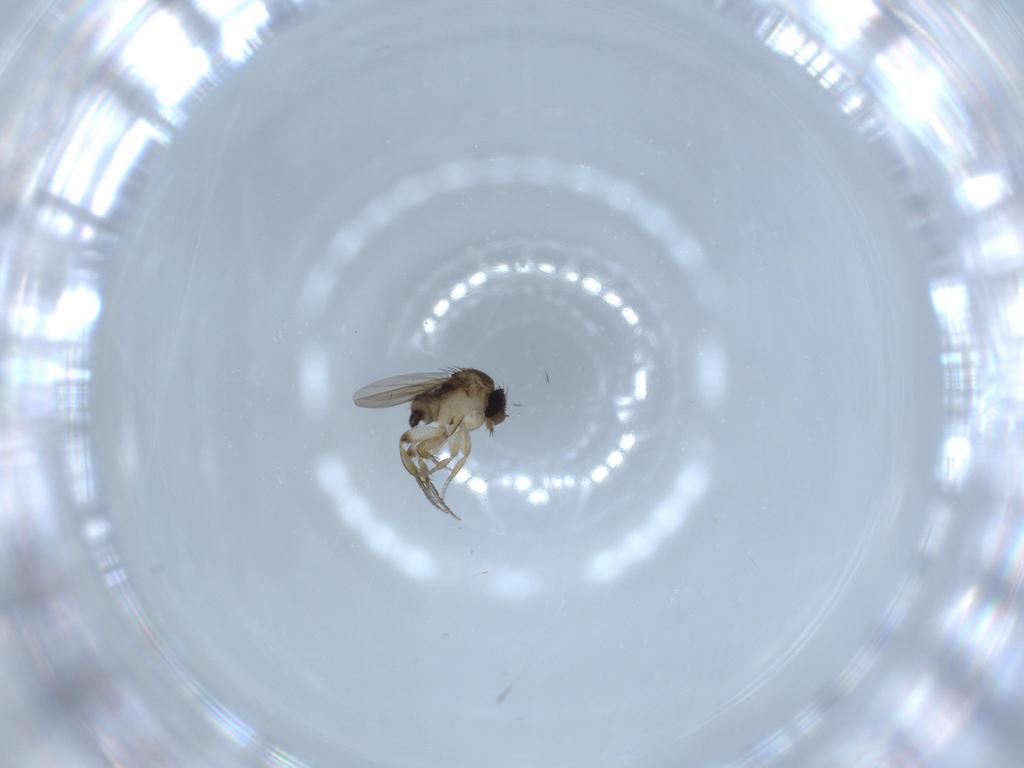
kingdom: Animalia
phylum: Arthropoda
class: Insecta
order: Diptera
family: Phoridae
